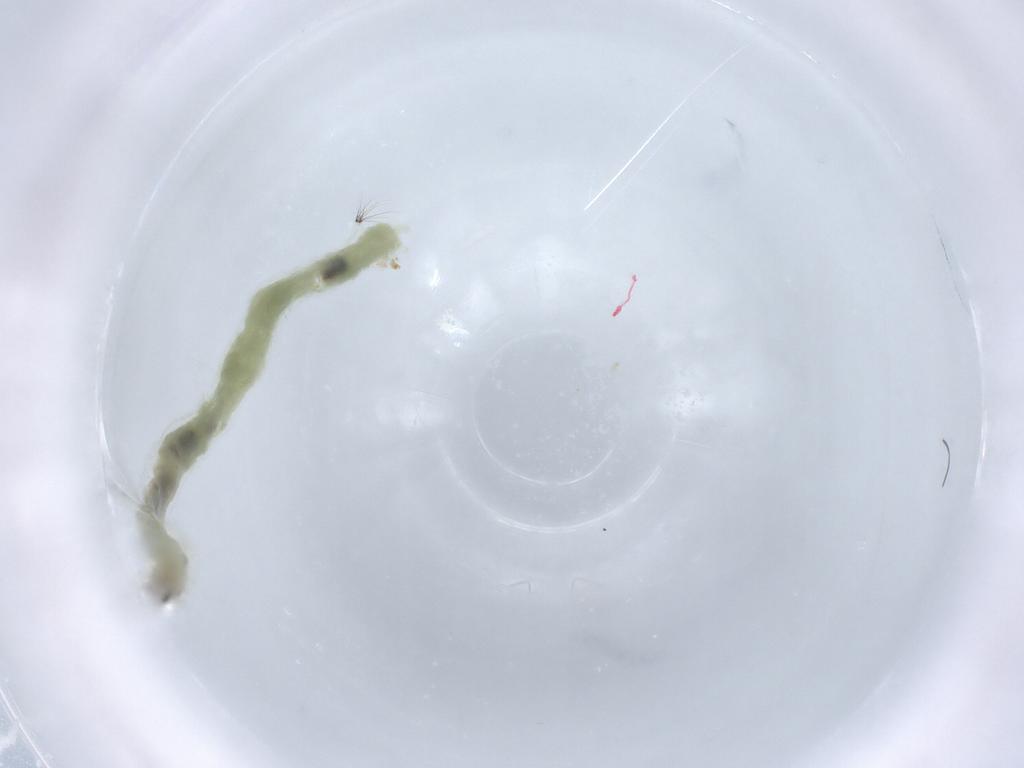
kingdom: Animalia
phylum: Arthropoda
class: Insecta
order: Diptera
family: Chironomidae
